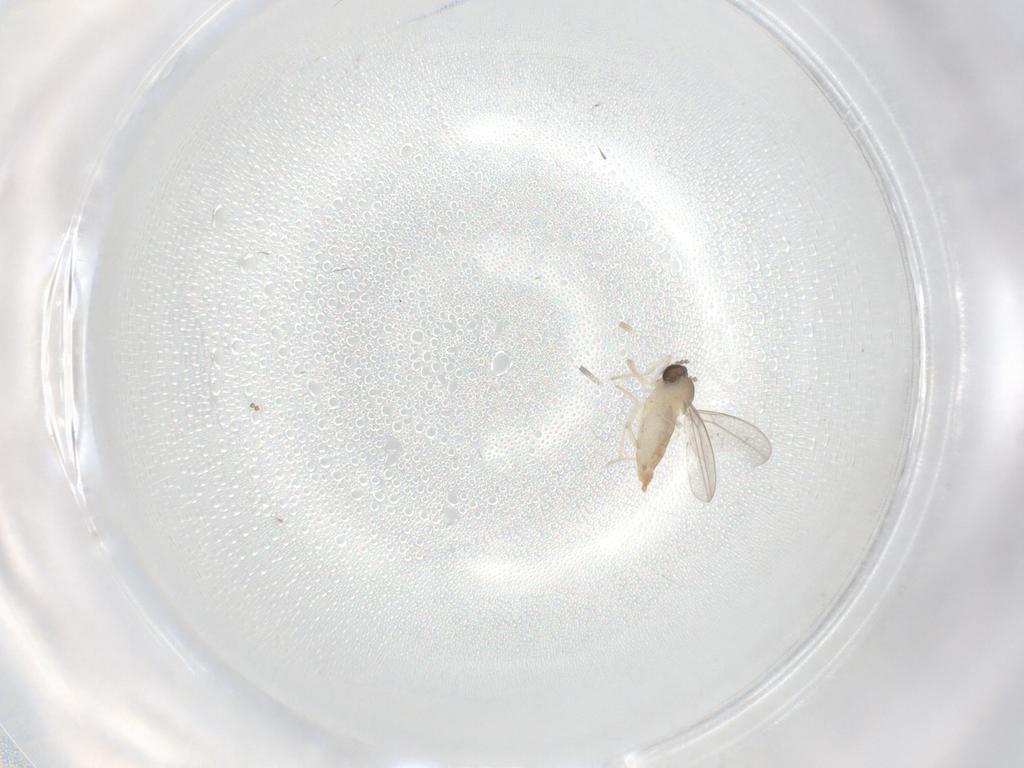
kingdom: Animalia
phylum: Arthropoda
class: Insecta
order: Diptera
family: Cecidomyiidae
